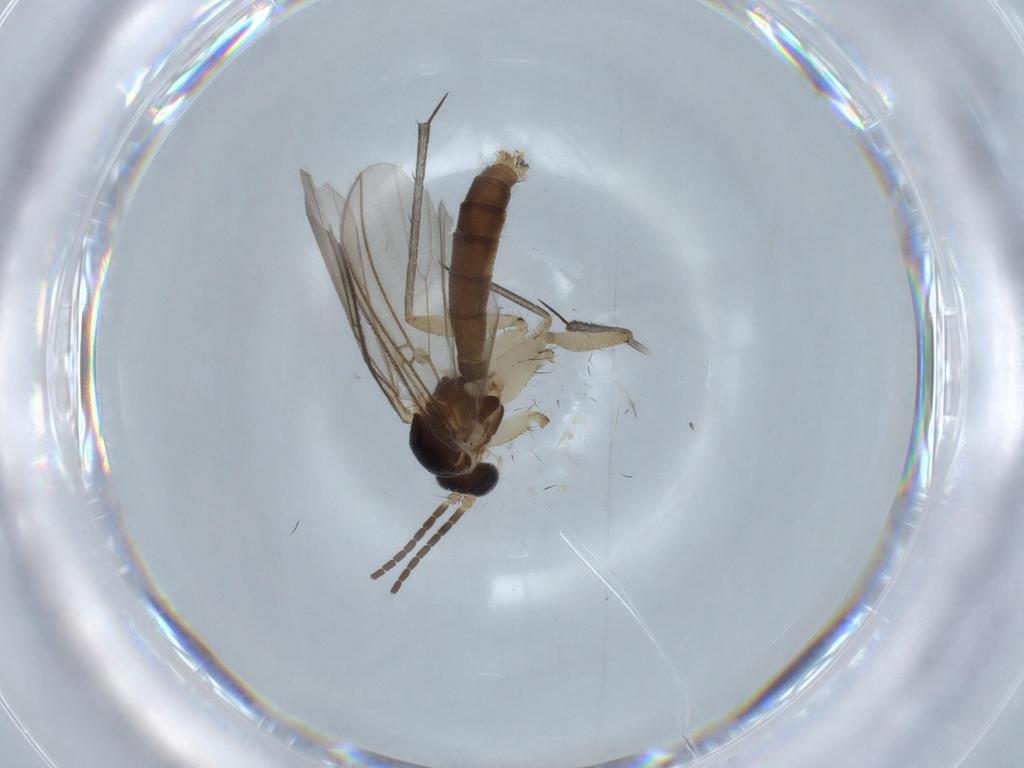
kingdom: Animalia
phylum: Arthropoda
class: Insecta
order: Diptera
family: Mycetophilidae
